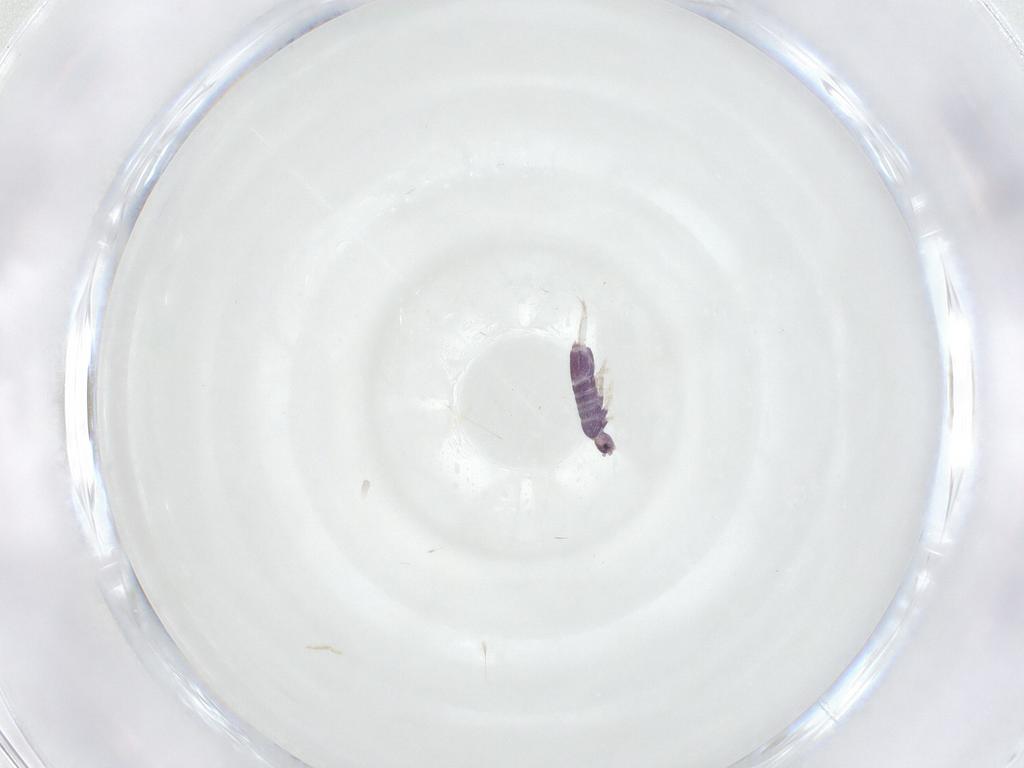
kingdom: Animalia
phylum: Arthropoda
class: Collembola
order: Entomobryomorpha
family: Entomobryidae
